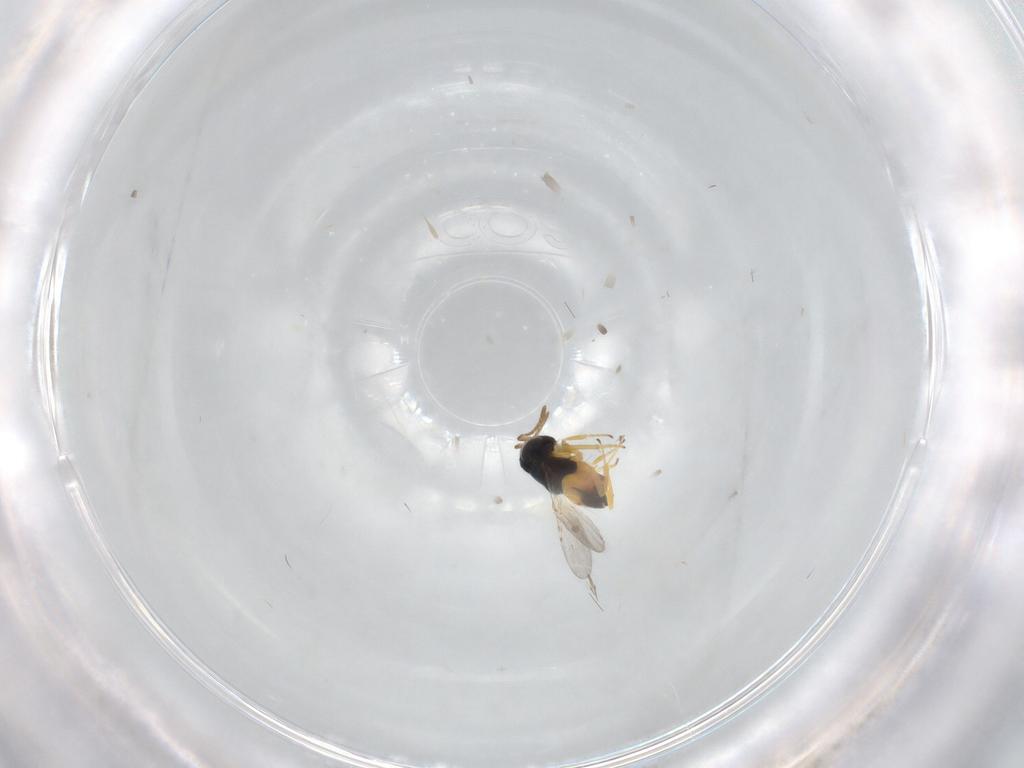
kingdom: Animalia
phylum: Arthropoda
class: Insecta
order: Hymenoptera
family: Encyrtidae
